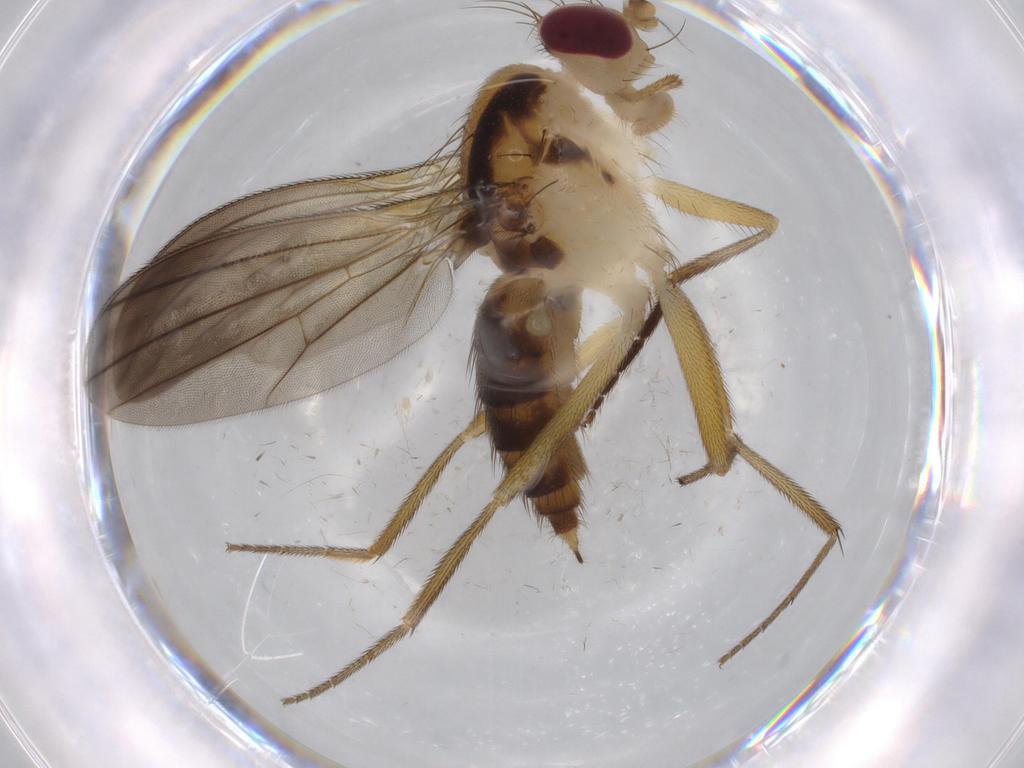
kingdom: Animalia
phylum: Arthropoda
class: Insecta
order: Diptera
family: Chloropidae
